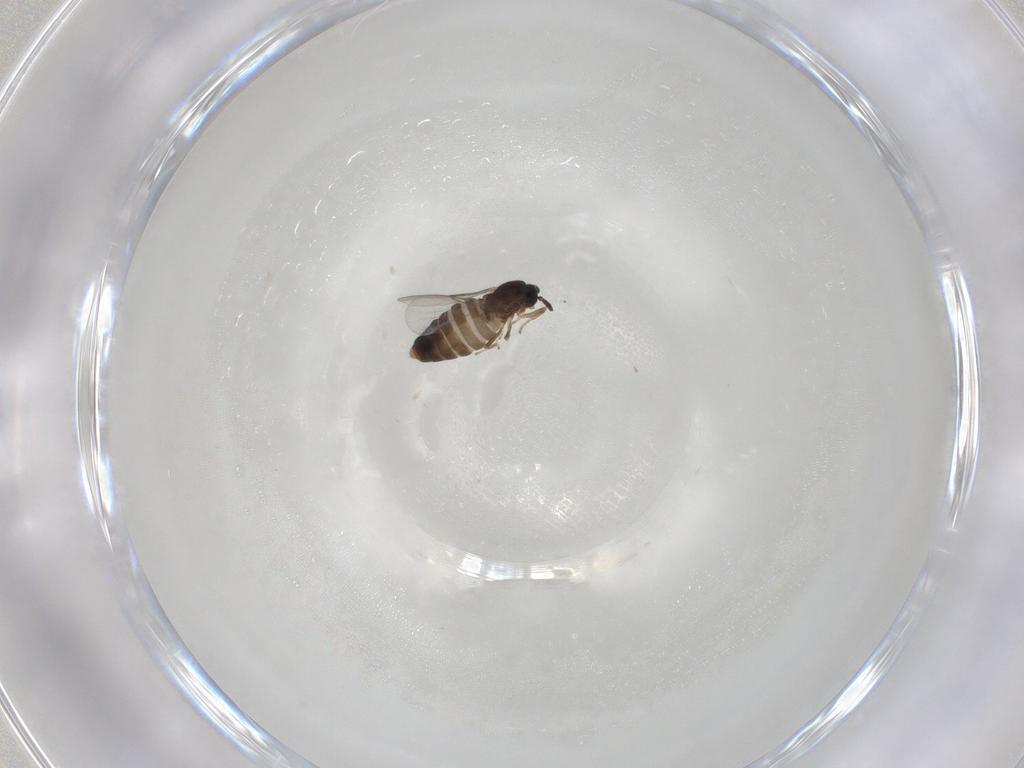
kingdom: Animalia
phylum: Arthropoda
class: Insecta
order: Diptera
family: Scatopsidae
